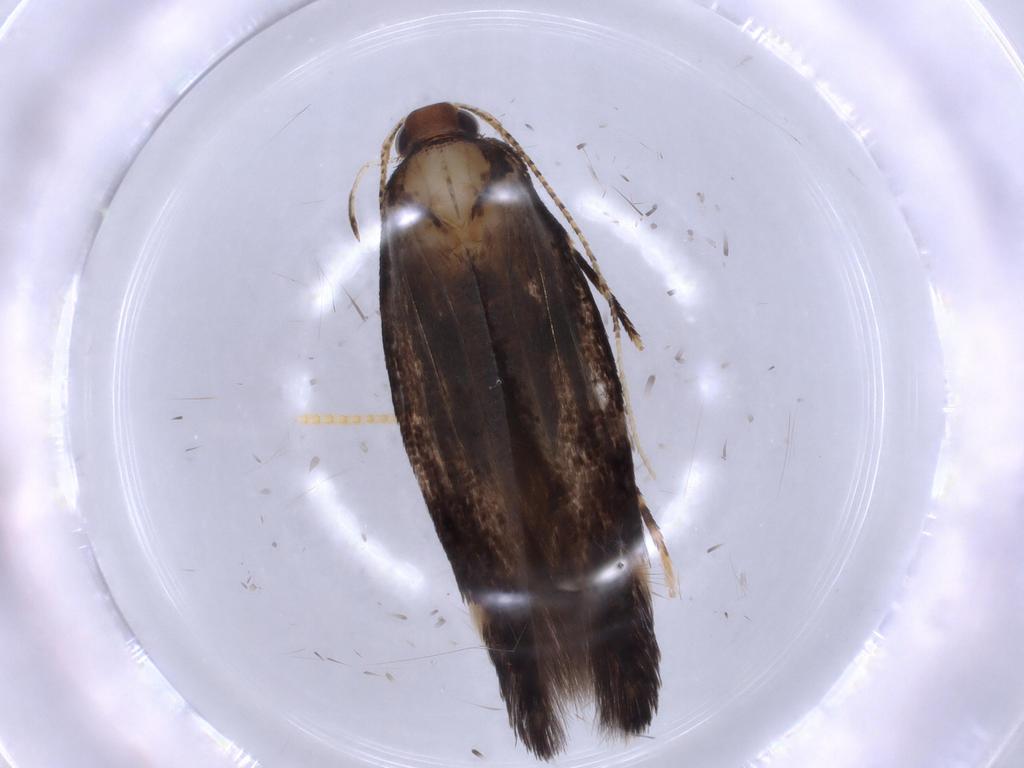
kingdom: Animalia
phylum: Arthropoda
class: Insecta
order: Lepidoptera
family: Cosmopterigidae
